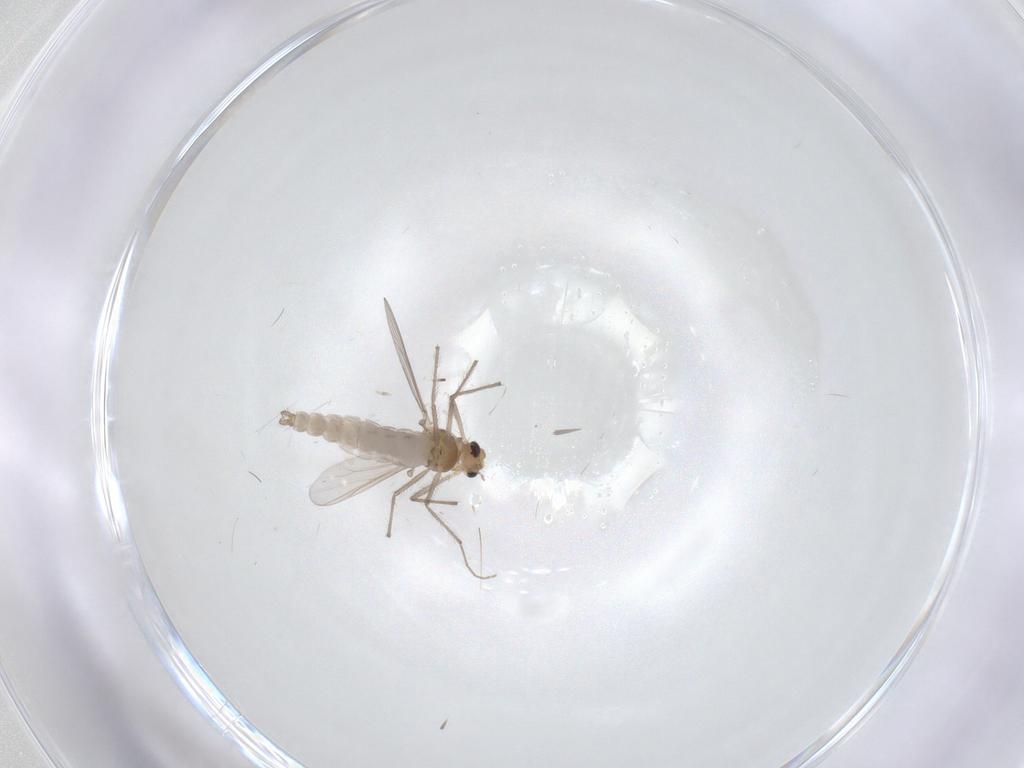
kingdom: Animalia
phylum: Arthropoda
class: Insecta
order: Diptera
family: Chironomidae
